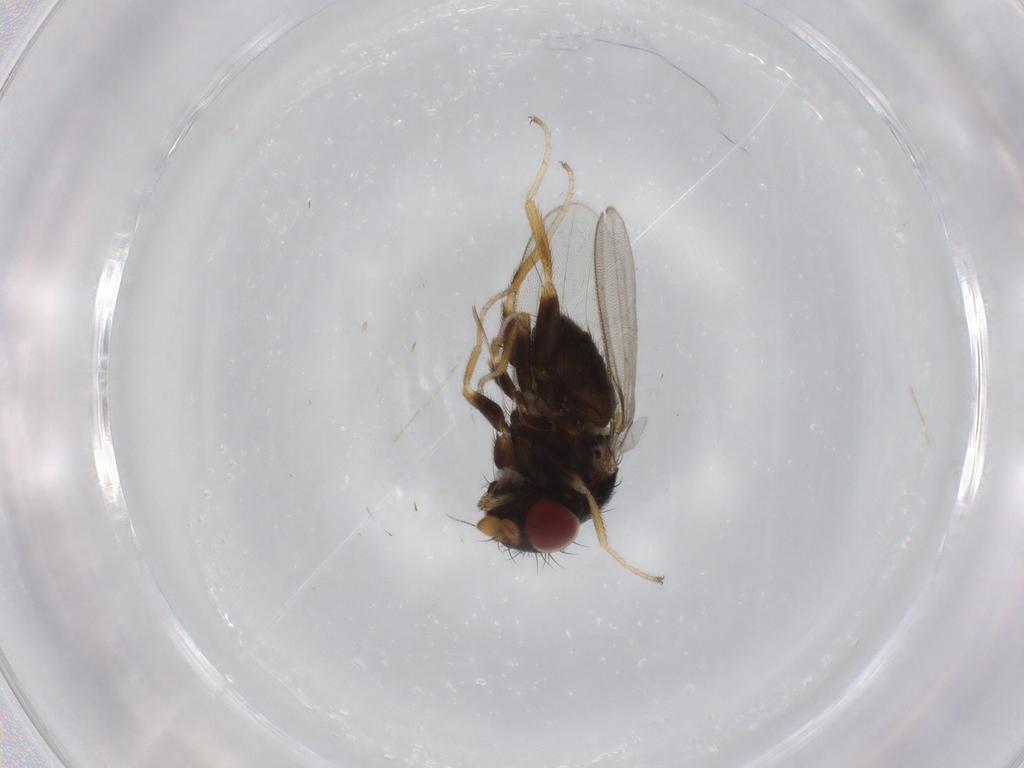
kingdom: Animalia
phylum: Arthropoda
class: Insecta
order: Diptera
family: Milichiidae
